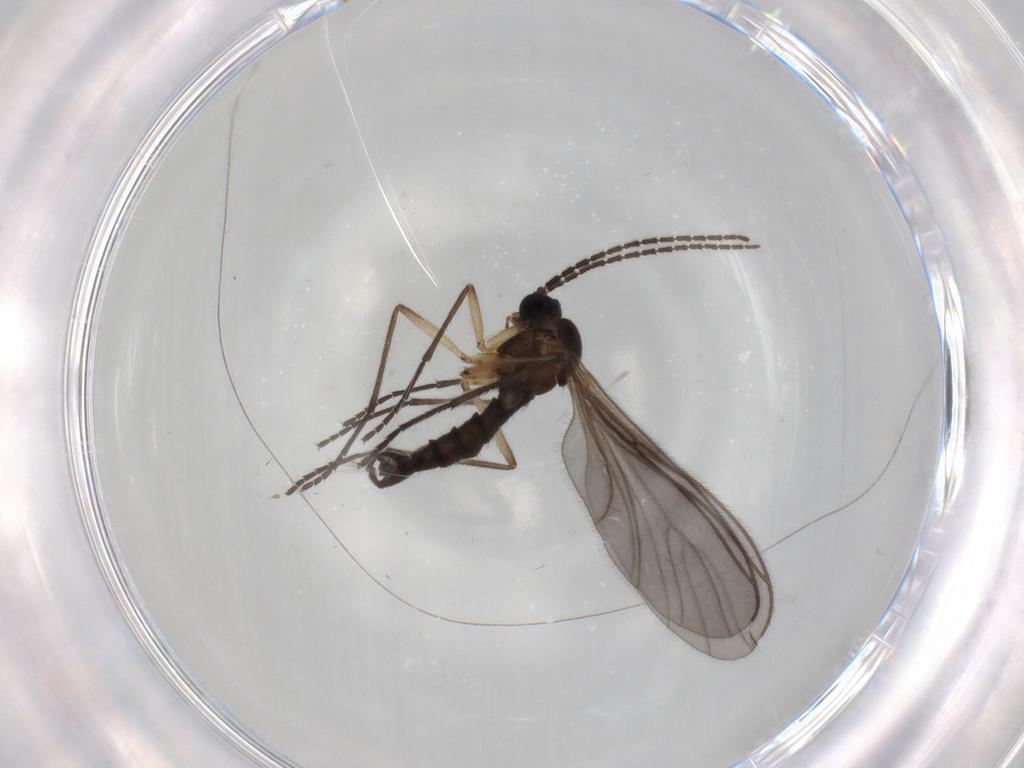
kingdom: Animalia
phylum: Arthropoda
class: Insecta
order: Diptera
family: Sciaridae
